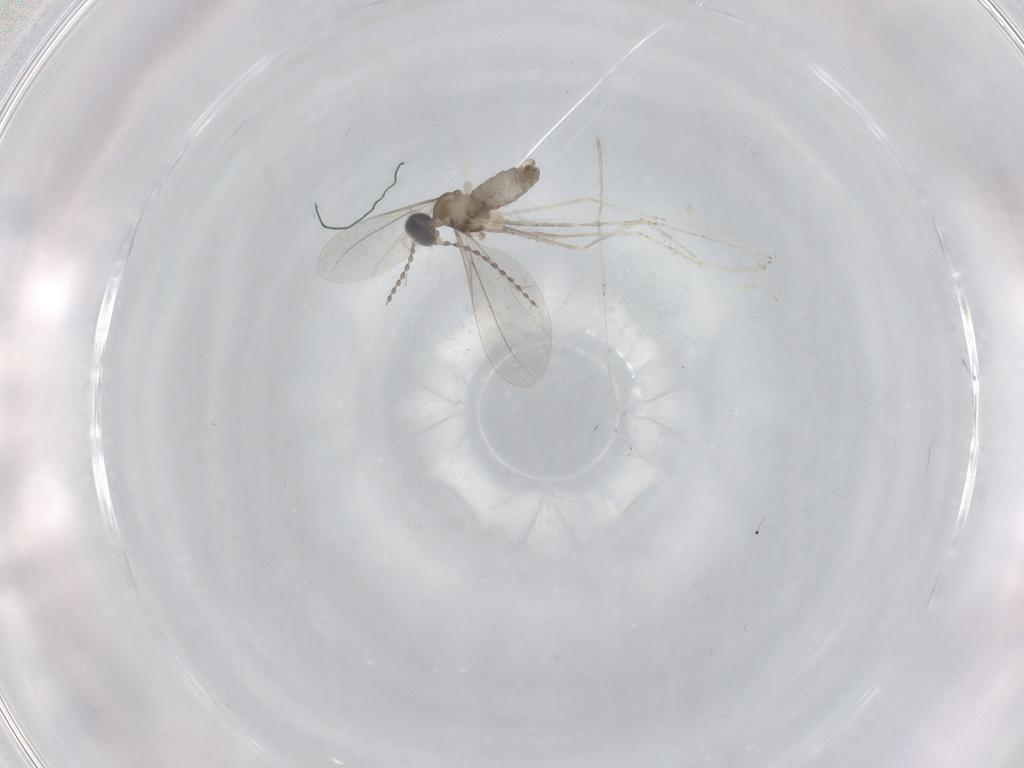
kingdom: Animalia
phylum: Arthropoda
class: Insecta
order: Diptera
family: Cecidomyiidae
